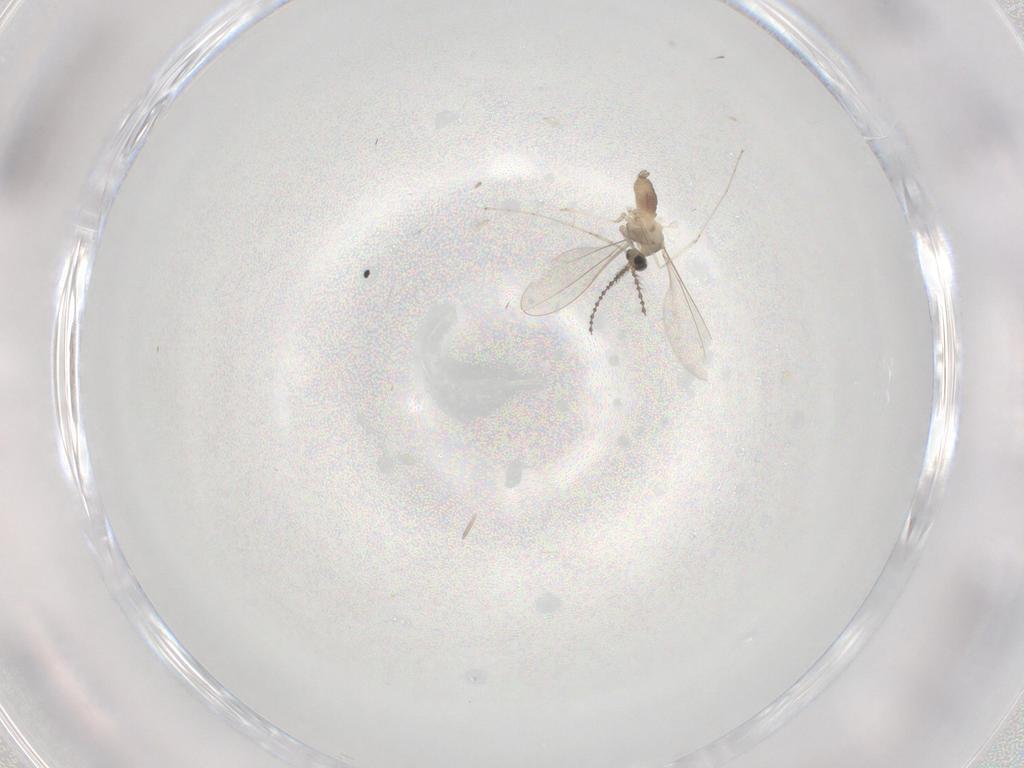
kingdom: Animalia
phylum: Arthropoda
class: Insecta
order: Diptera
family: Cecidomyiidae
